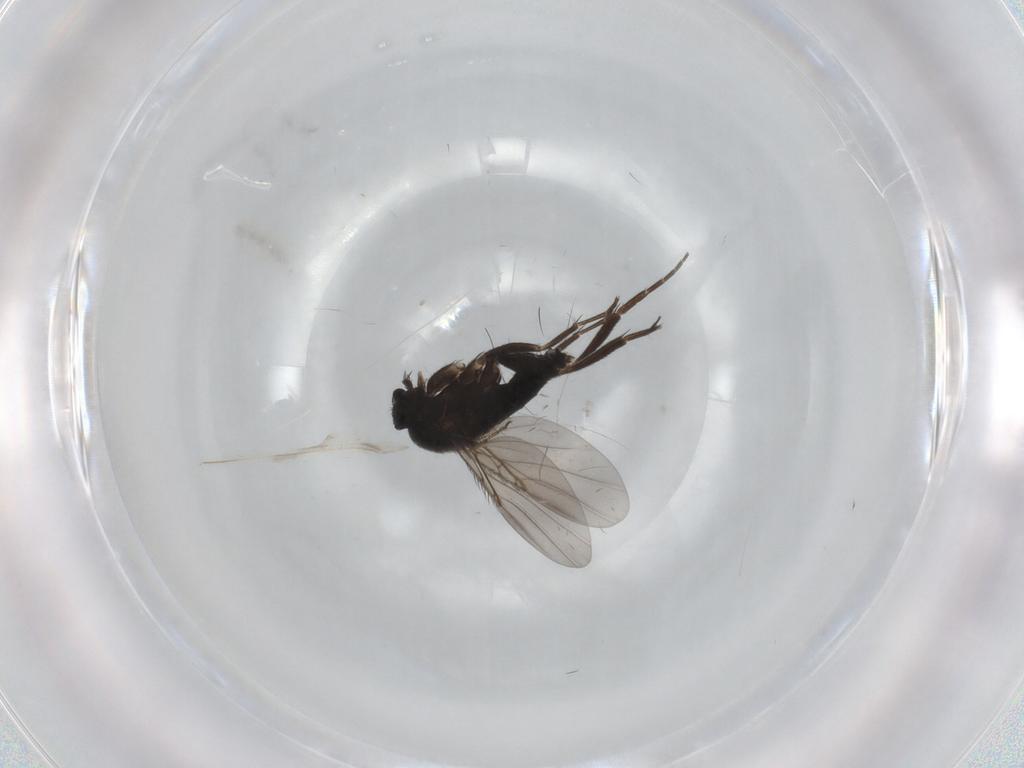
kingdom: Animalia
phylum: Arthropoda
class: Insecta
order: Diptera
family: Phoridae
